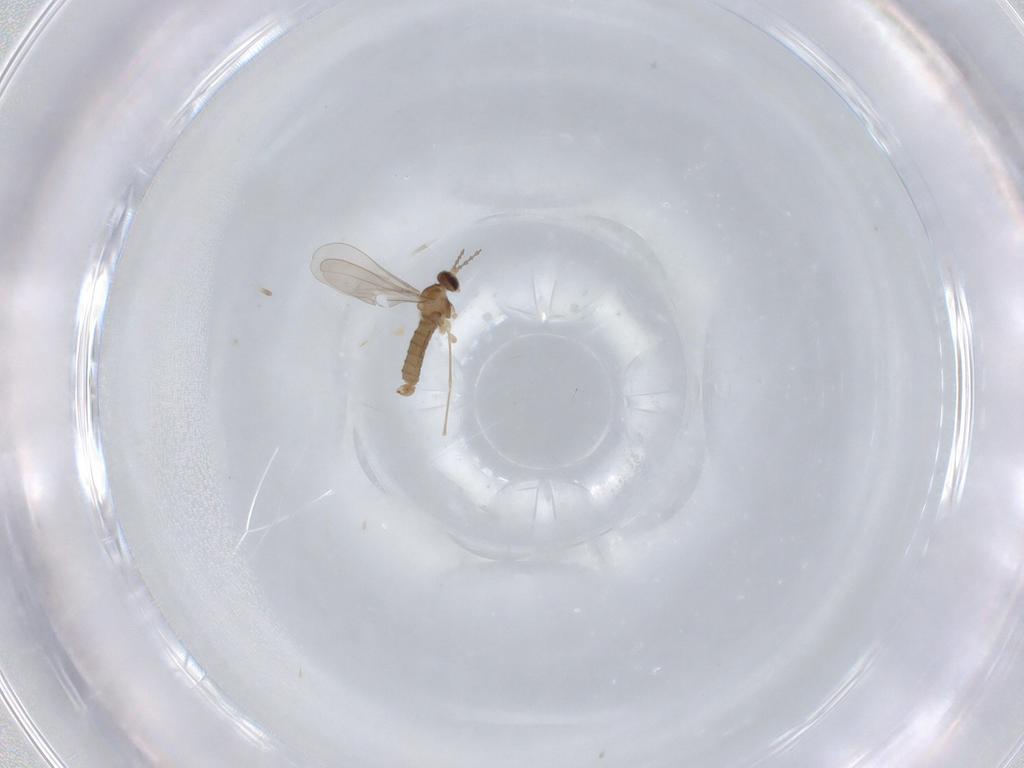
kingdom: Animalia
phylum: Arthropoda
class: Insecta
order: Diptera
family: Cecidomyiidae
